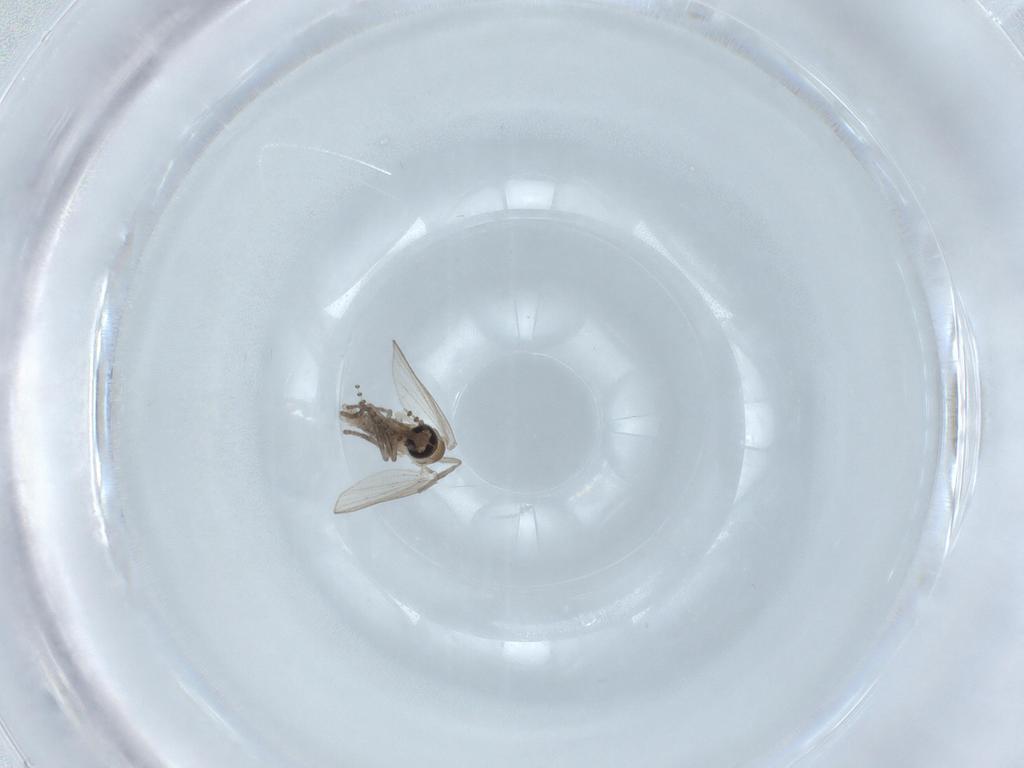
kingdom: Animalia
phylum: Arthropoda
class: Insecta
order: Diptera
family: Psychodidae
